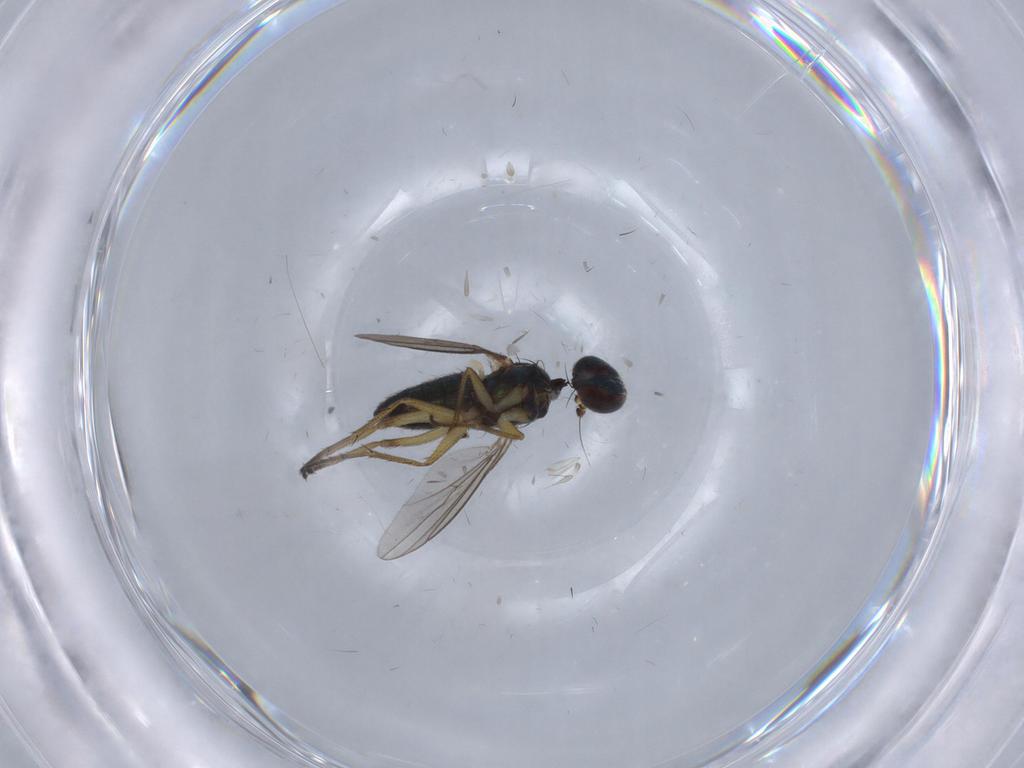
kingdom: Animalia
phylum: Arthropoda
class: Insecta
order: Diptera
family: Dolichopodidae
